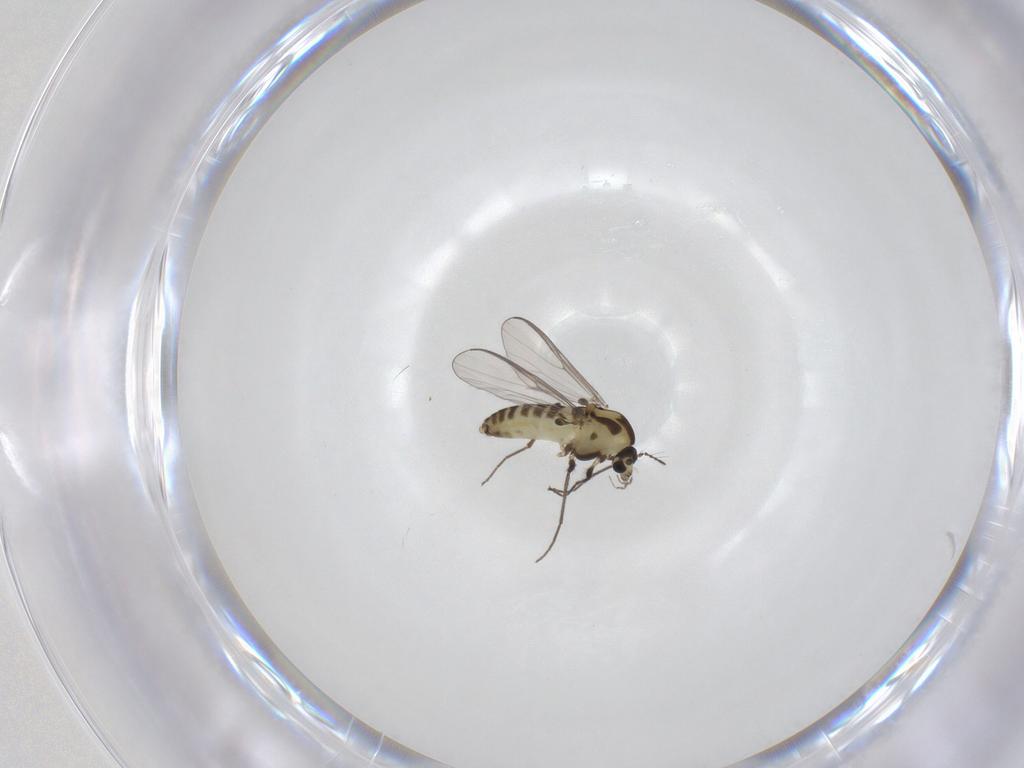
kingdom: Animalia
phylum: Arthropoda
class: Insecta
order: Diptera
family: Chironomidae
